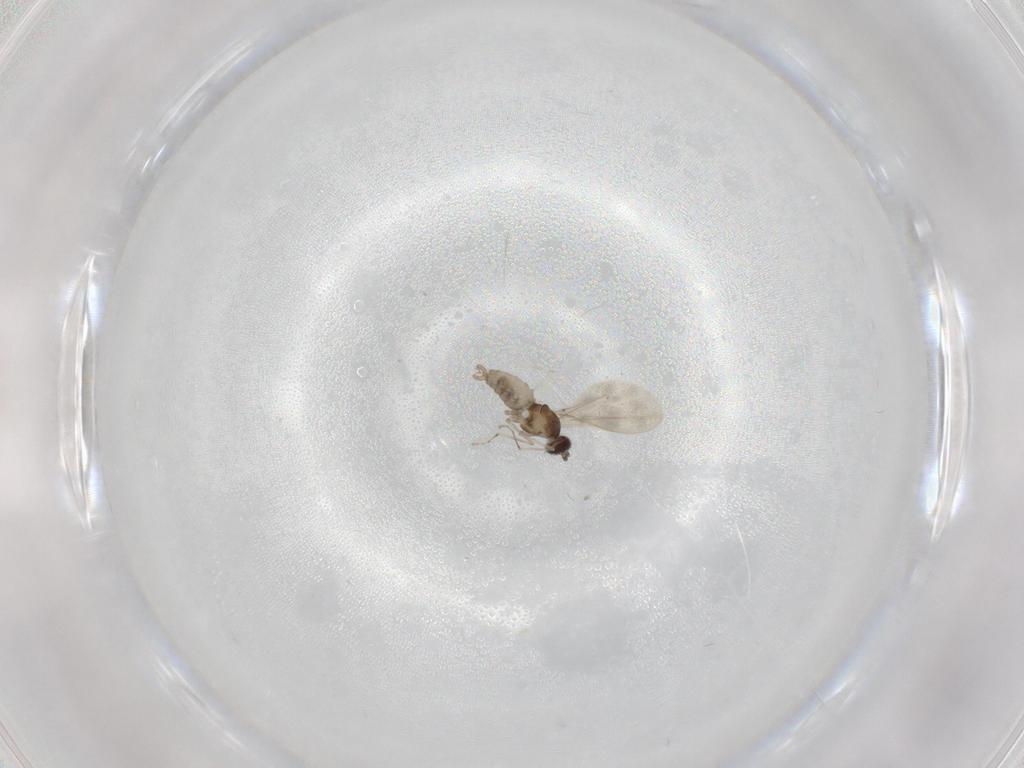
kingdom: Animalia
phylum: Arthropoda
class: Insecta
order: Diptera
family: Cecidomyiidae
